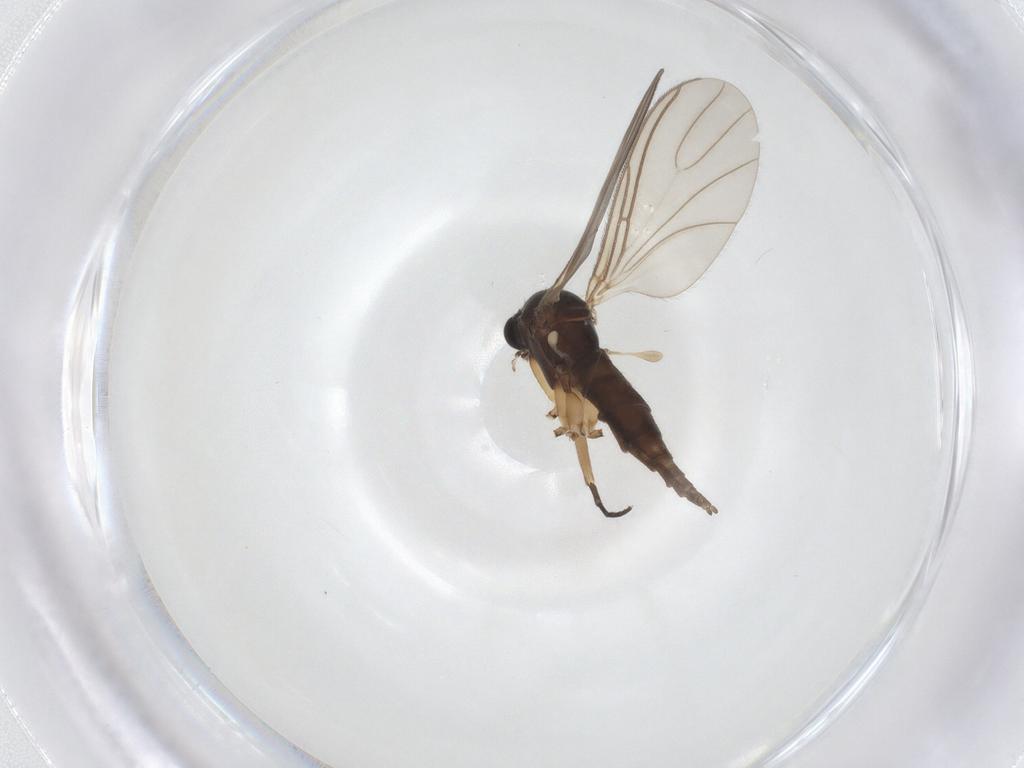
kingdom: Animalia
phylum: Arthropoda
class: Insecta
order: Diptera
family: Sciaridae
